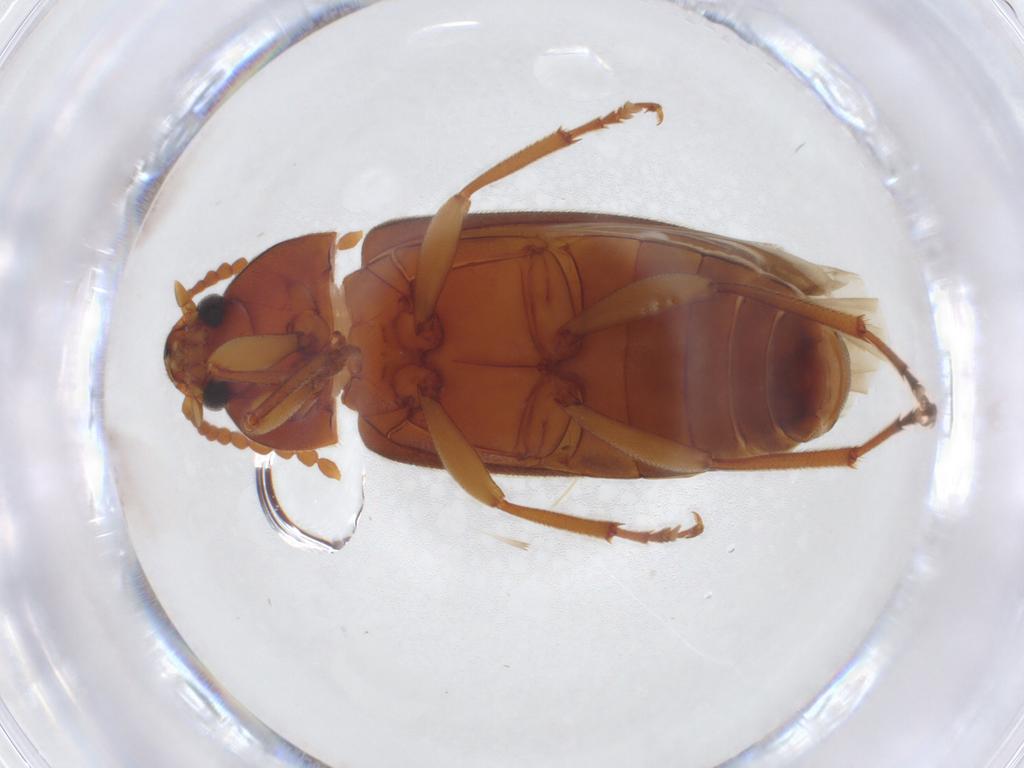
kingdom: Animalia
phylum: Arthropoda
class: Insecta
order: Coleoptera
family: Tenebrionidae
